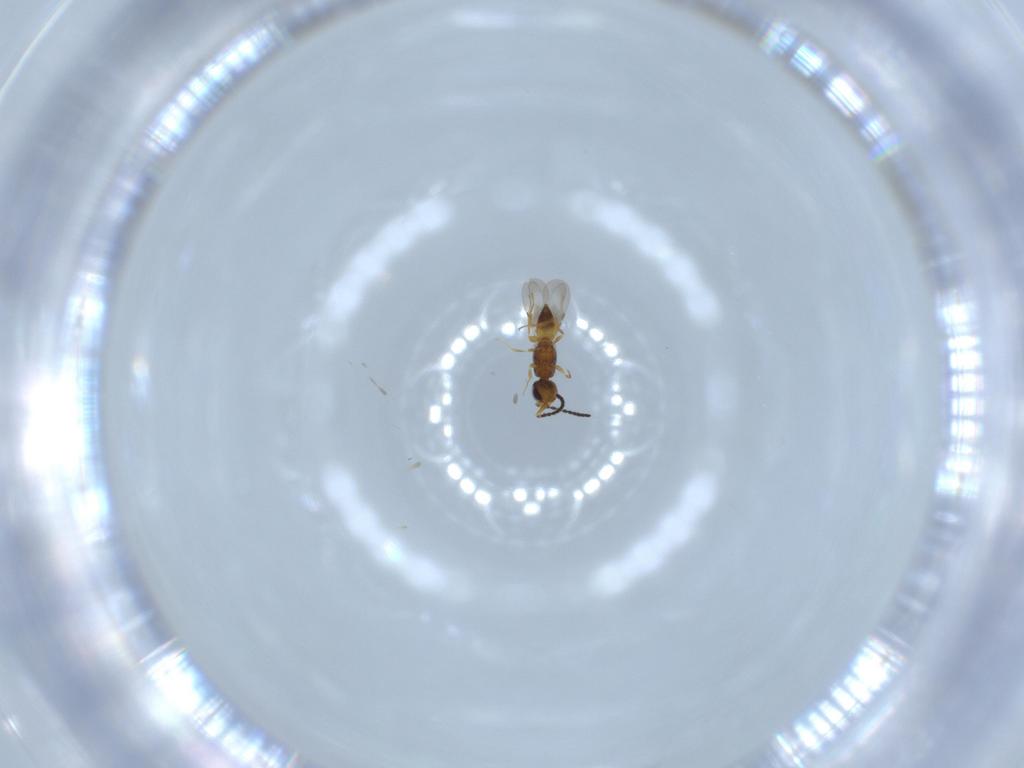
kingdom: Animalia
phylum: Arthropoda
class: Insecta
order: Hymenoptera
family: Ceraphronidae
